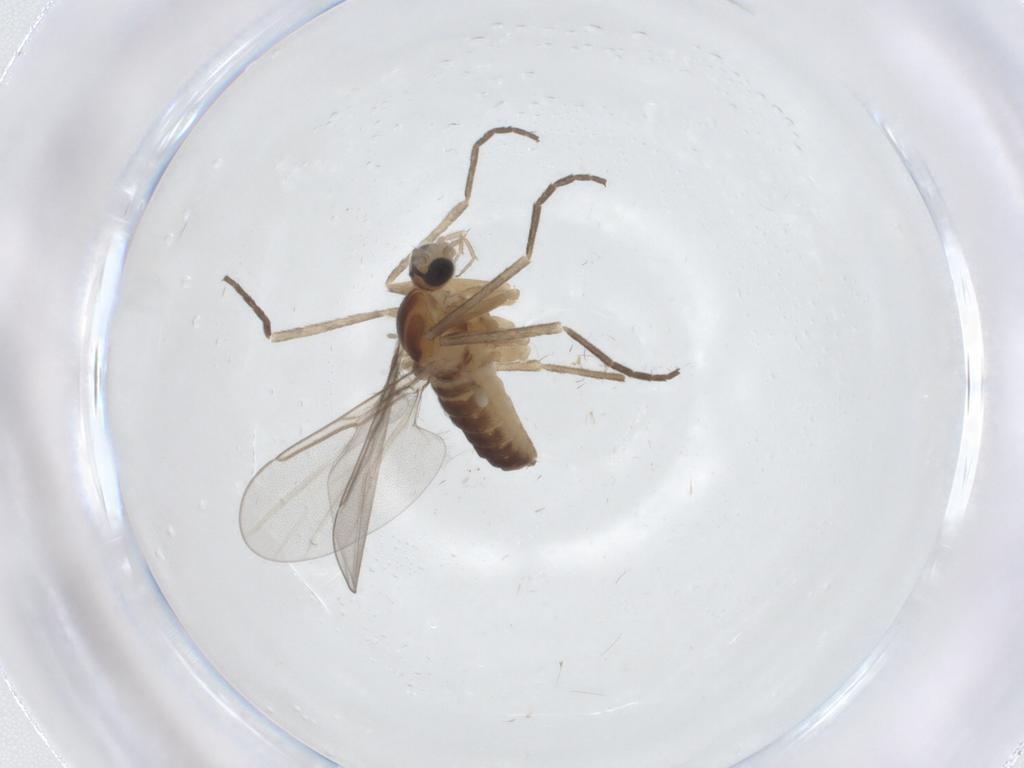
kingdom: Animalia
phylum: Arthropoda
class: Insecta
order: Diptera
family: Cecidomyiidae
